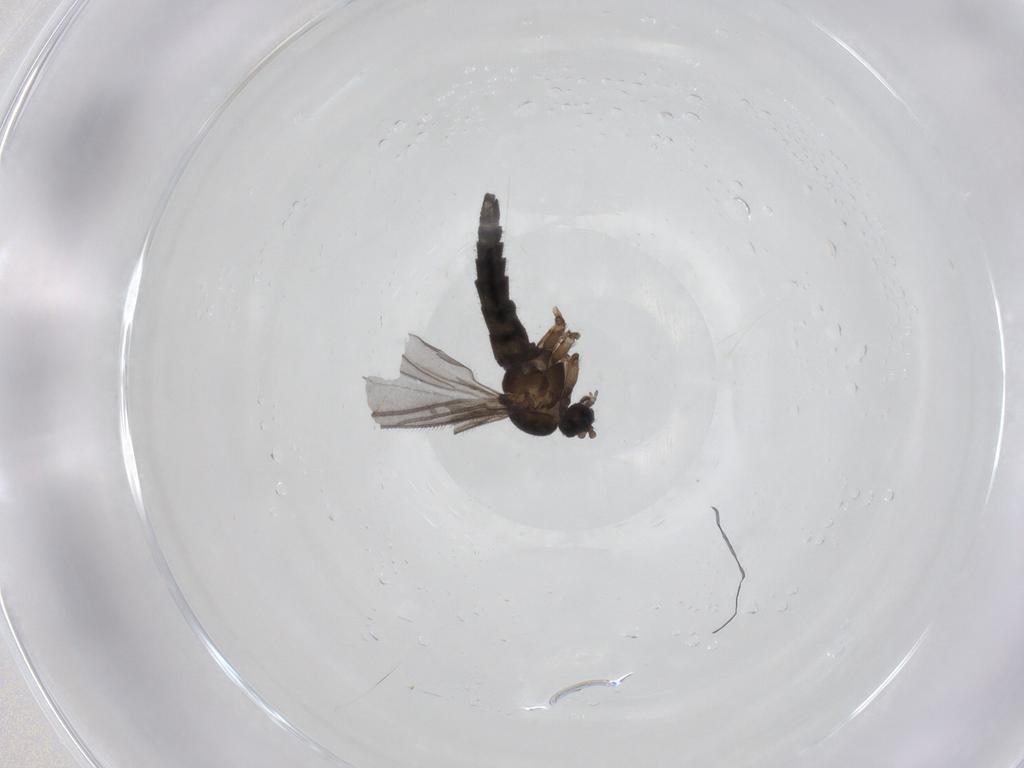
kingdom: Animalia
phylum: Arthropoda
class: Insecta
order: Diptera
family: Sciaridae
